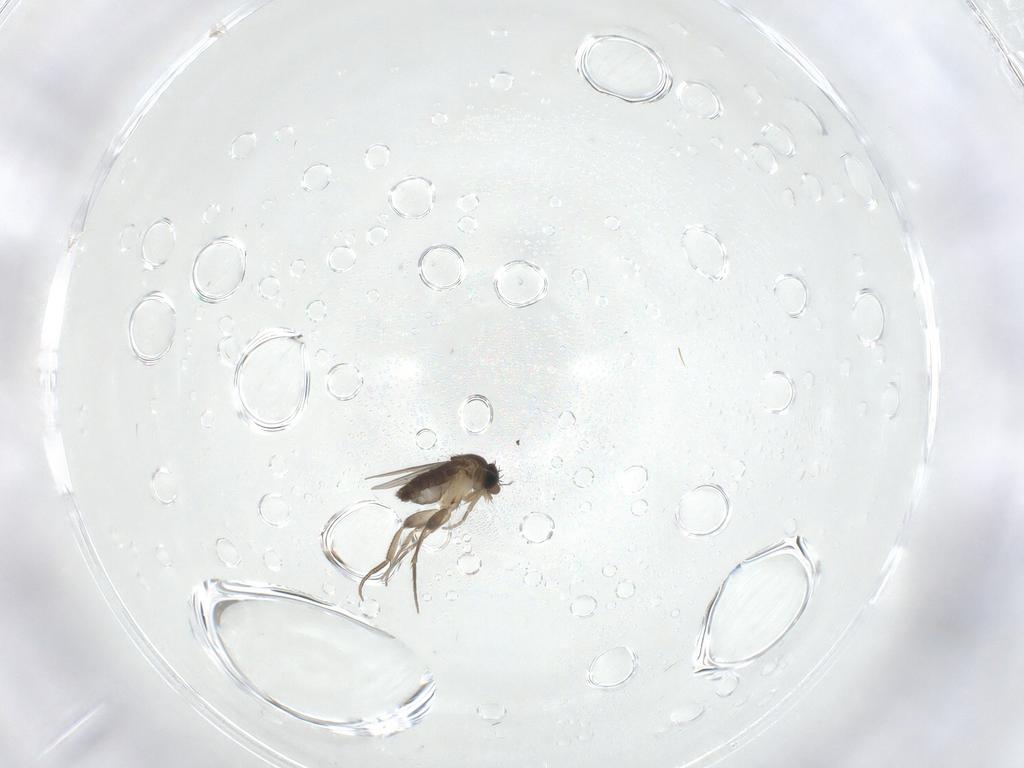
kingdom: Animalia
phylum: Arthropoda
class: Insecta
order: Diptera
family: Phoridae
